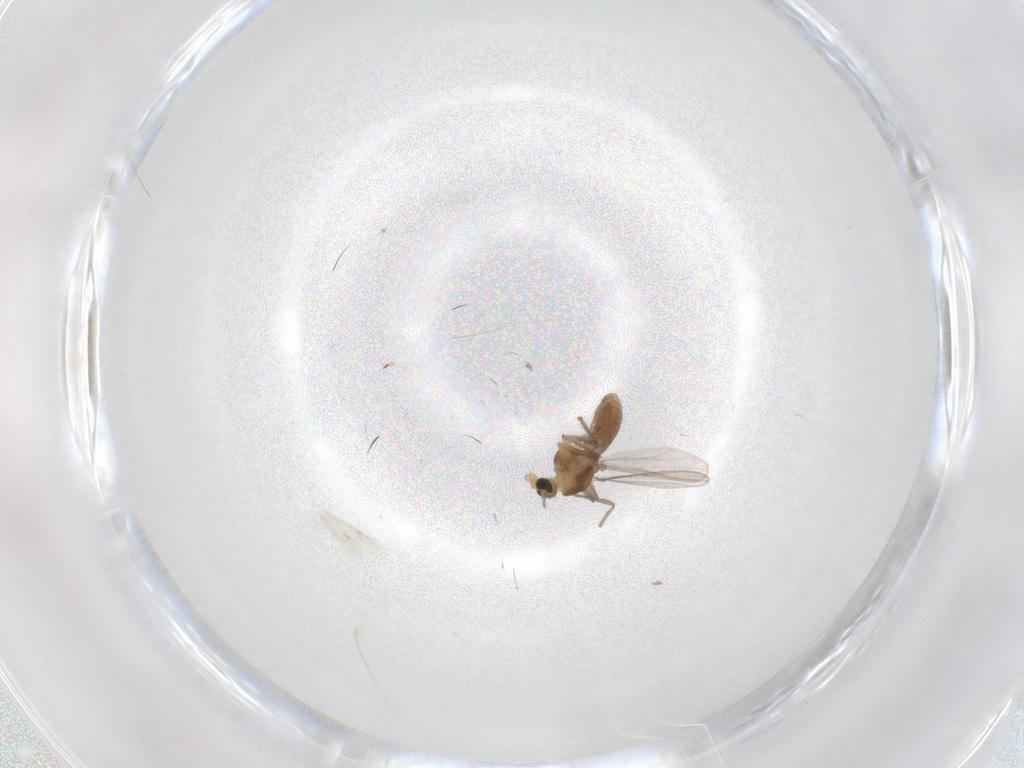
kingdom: Animalia
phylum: Arthropoda
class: Insecta
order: Diptera
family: Chironomidae
